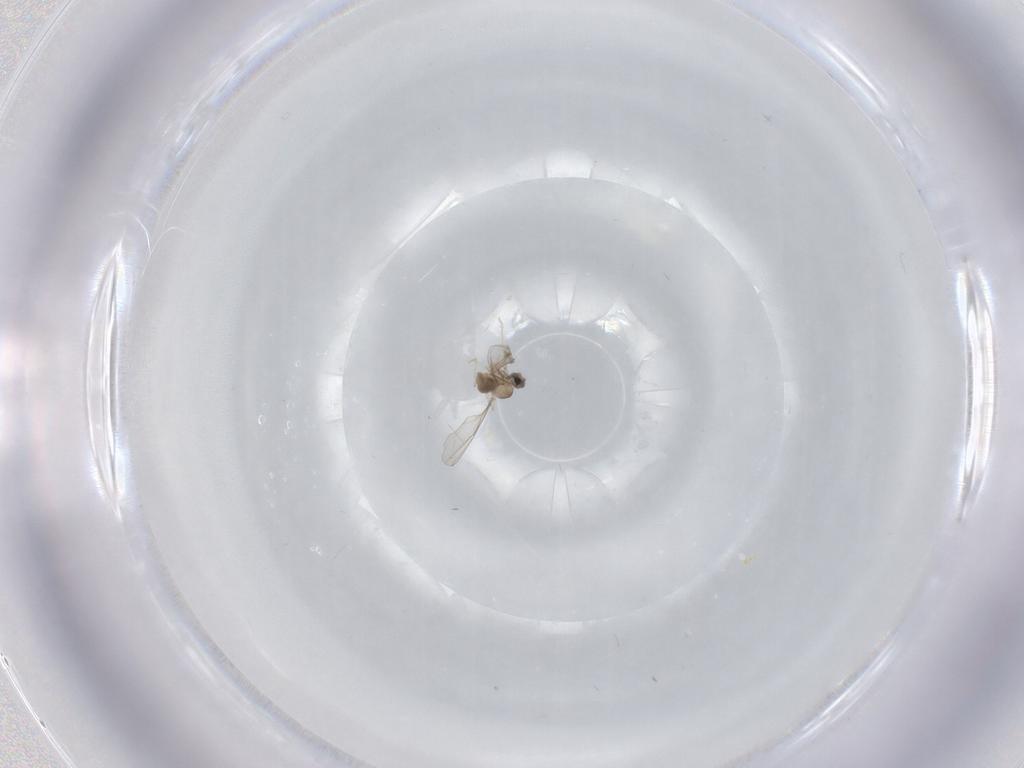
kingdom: Animalia
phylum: Arthropoda
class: Insecta
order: Diptera
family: Cecidomyiidae
